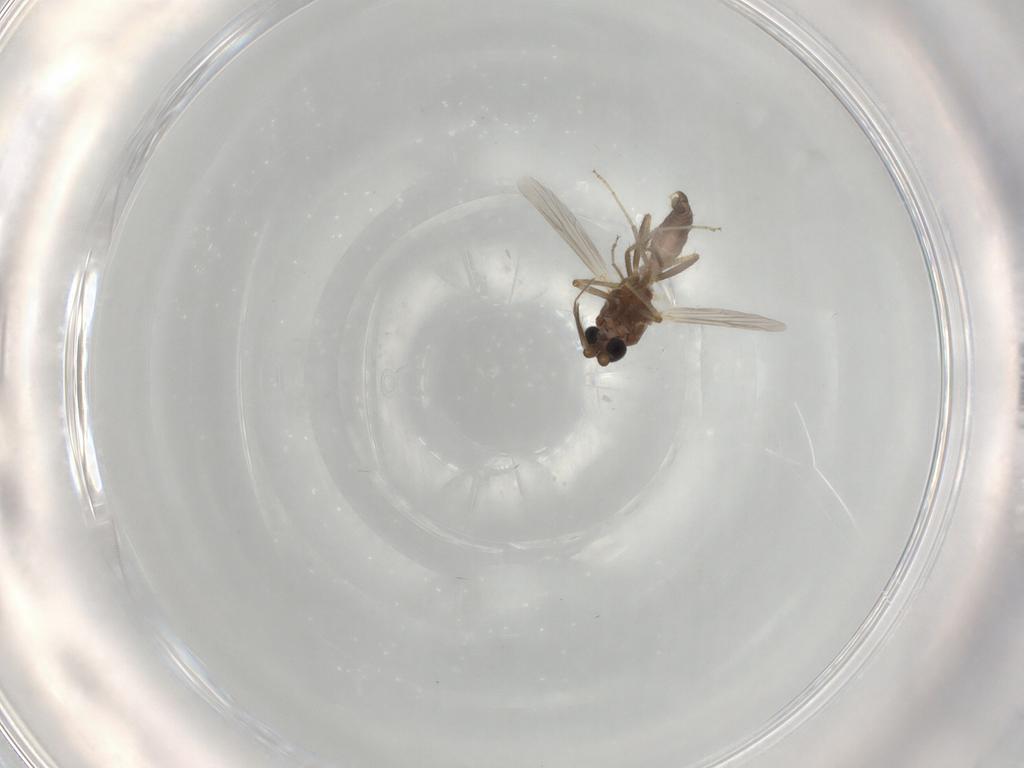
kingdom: Animalia
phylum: Arthropoda
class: Insecta
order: Diptera
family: Ceratopogonidae
